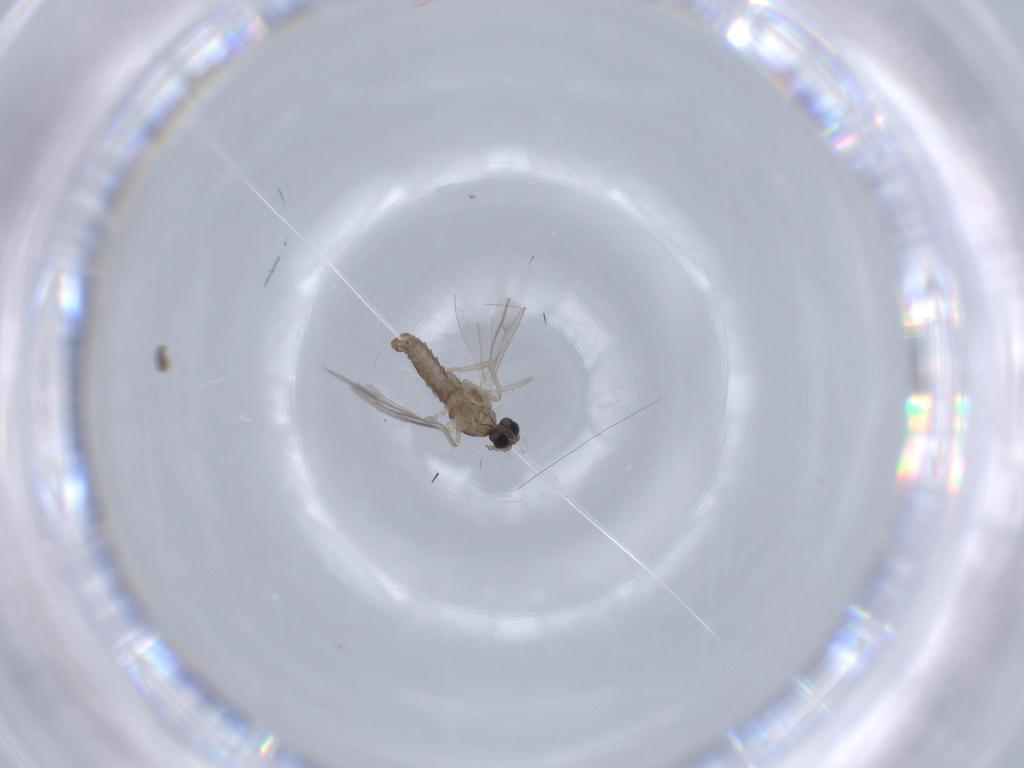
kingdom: Animalia
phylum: Arthropoda
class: Insecta
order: Diptera
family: Cecidomyiidae
